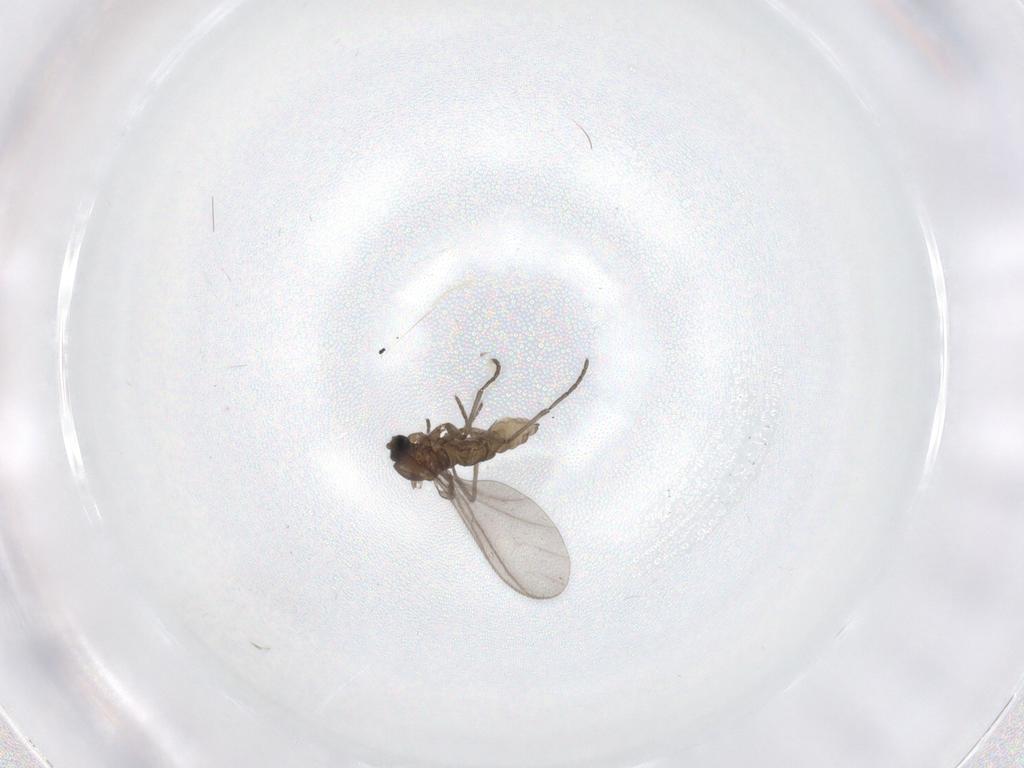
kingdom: Animalia
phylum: Arthropoda
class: Insecta
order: Diptera
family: Sciaridae
